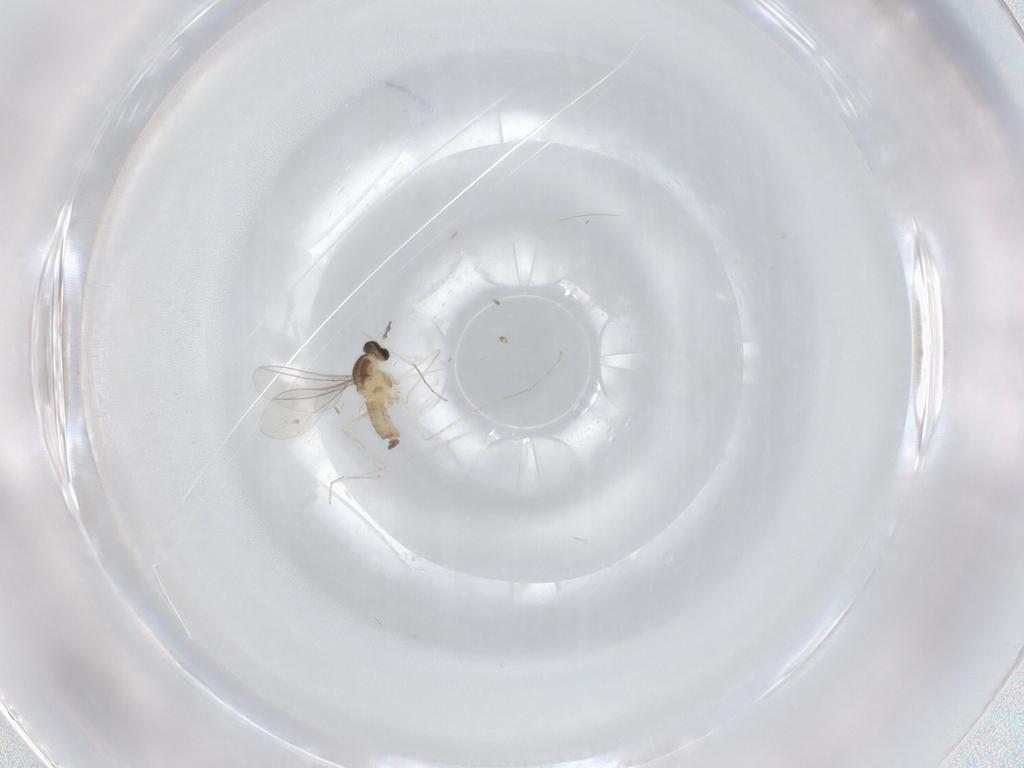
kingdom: Animalia
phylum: Arthropoda
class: Insecta
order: Diptera
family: Cecidomyiidae
